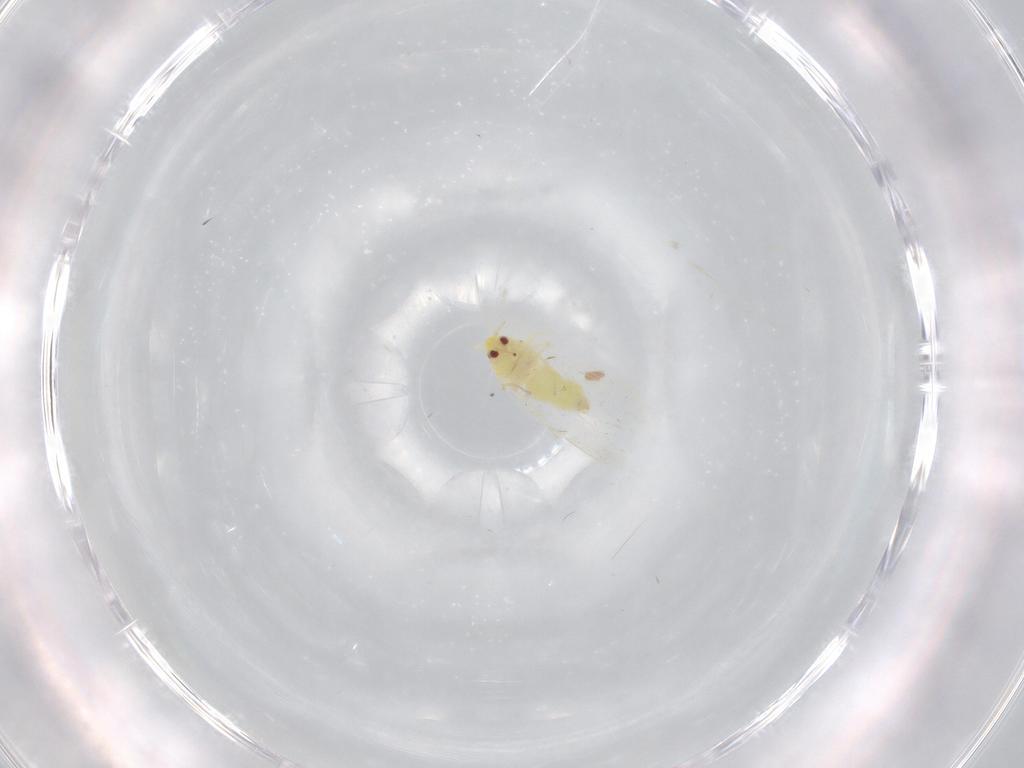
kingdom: Animalia
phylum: Arthropoda
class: Insecta
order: Hemiptera
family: Aleyrodidae
